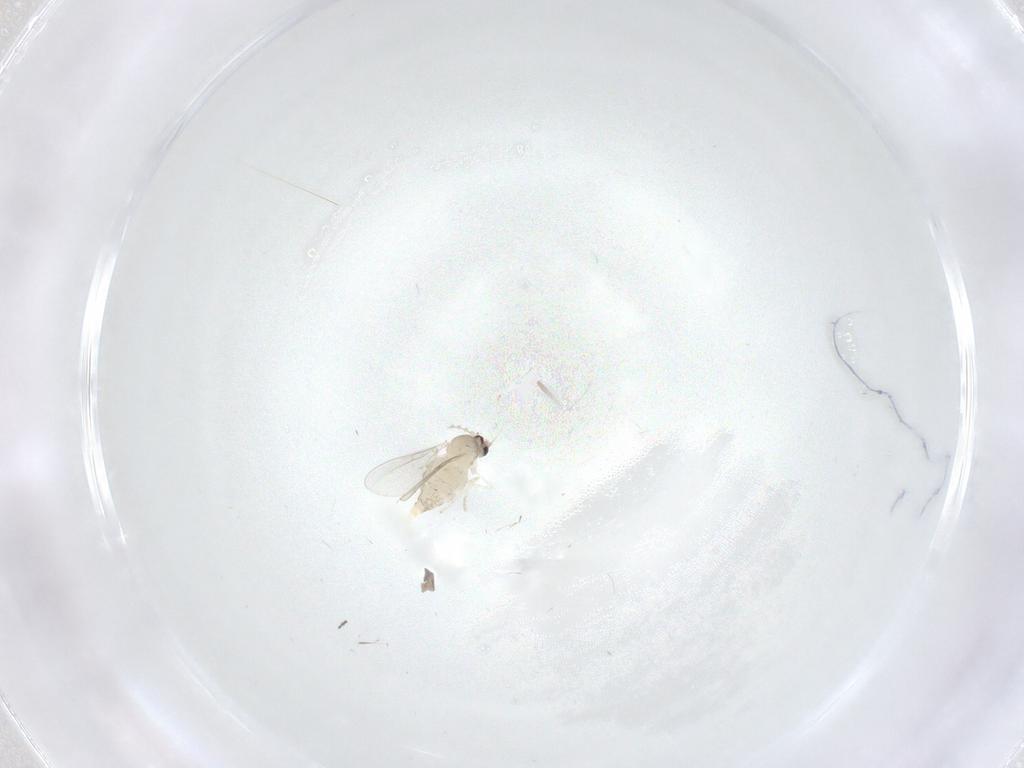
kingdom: Animalia
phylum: Arthropoda
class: Insecta
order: Diptera
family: Cecidomyiidae
